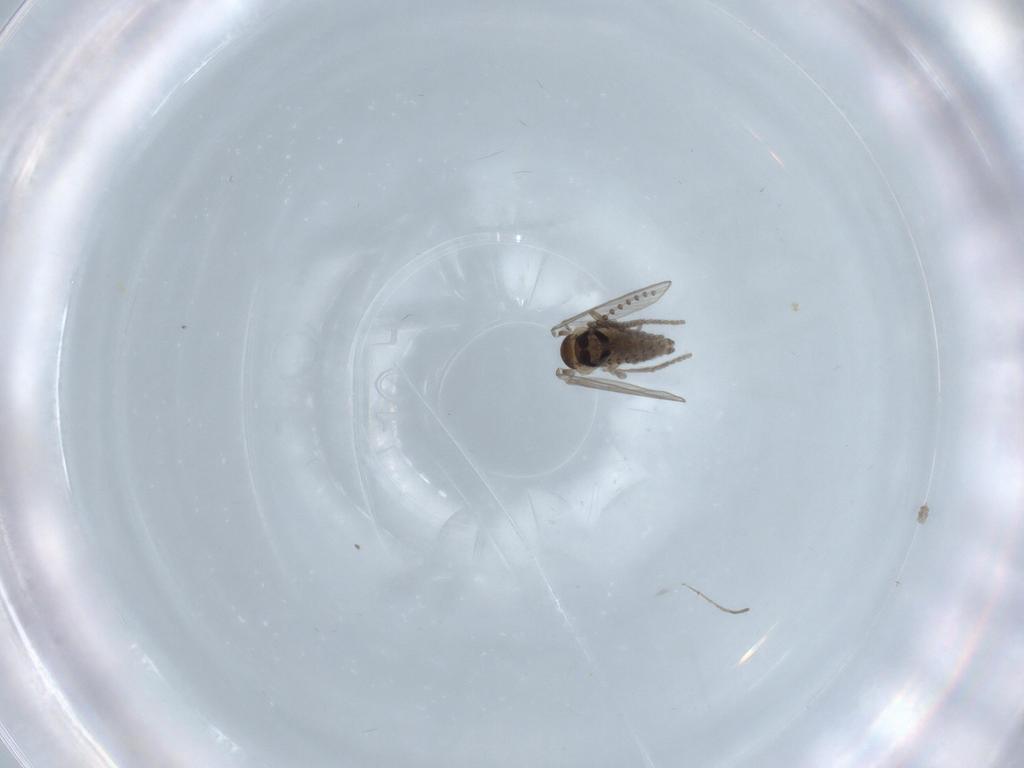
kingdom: Animalia
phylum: Arthropoda
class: Insecta
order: Diptera
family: Psychodidae
